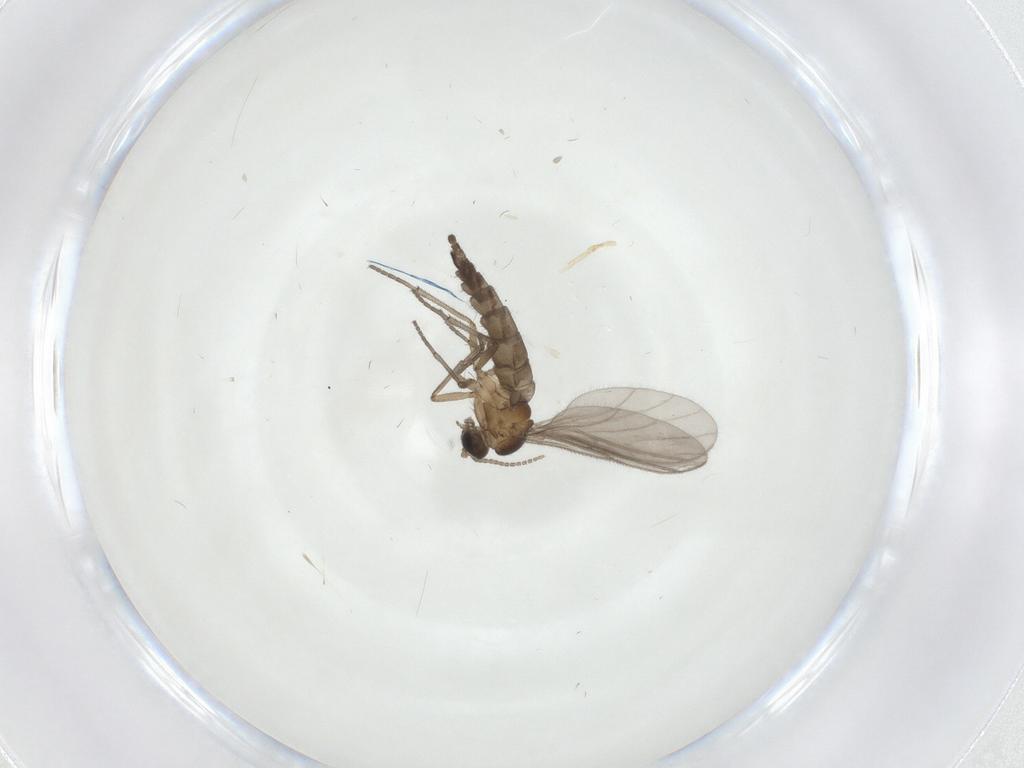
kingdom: Animalia
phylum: Arthropoda
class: Insecta
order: Diptera
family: Sciaridae
